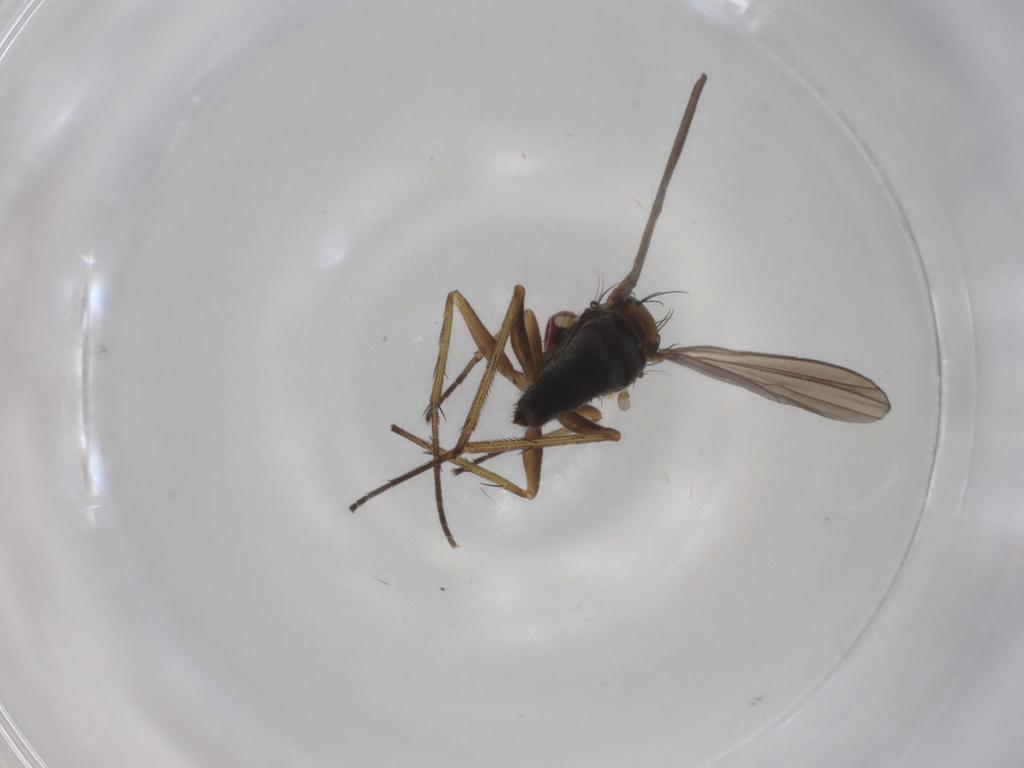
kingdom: Animalia
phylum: Arthropoda
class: Insecta
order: Diptera
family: Dolichopodidae
